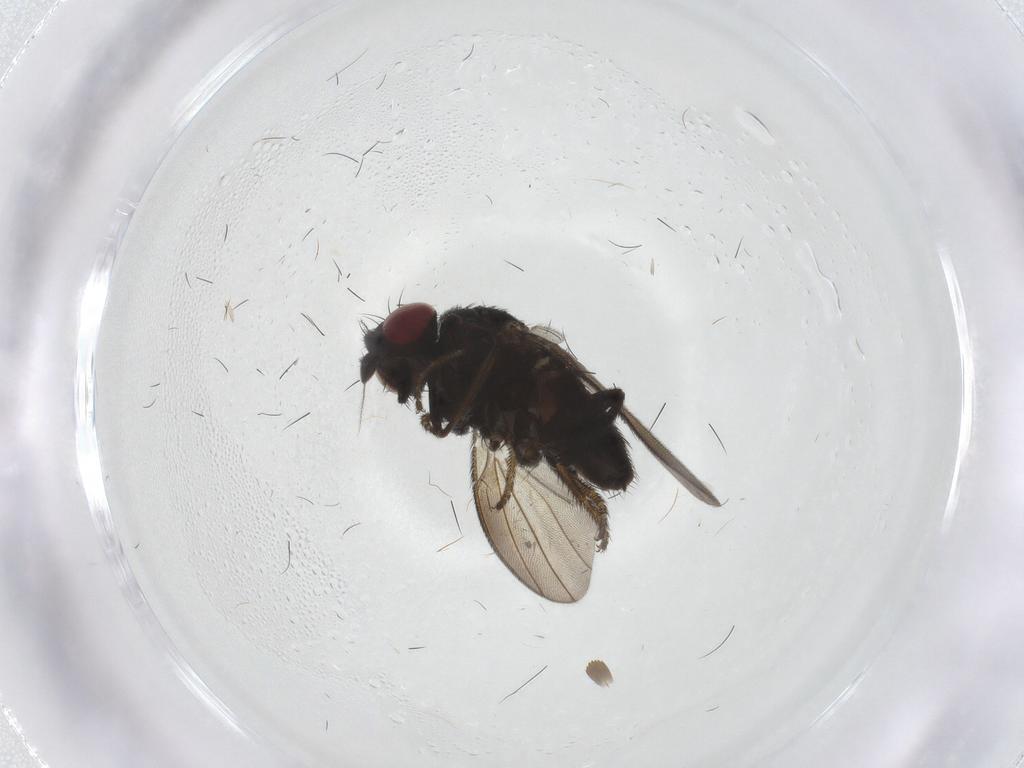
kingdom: Animalia
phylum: Arthropoda
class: Insecta
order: Diptera
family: Milichiidae
